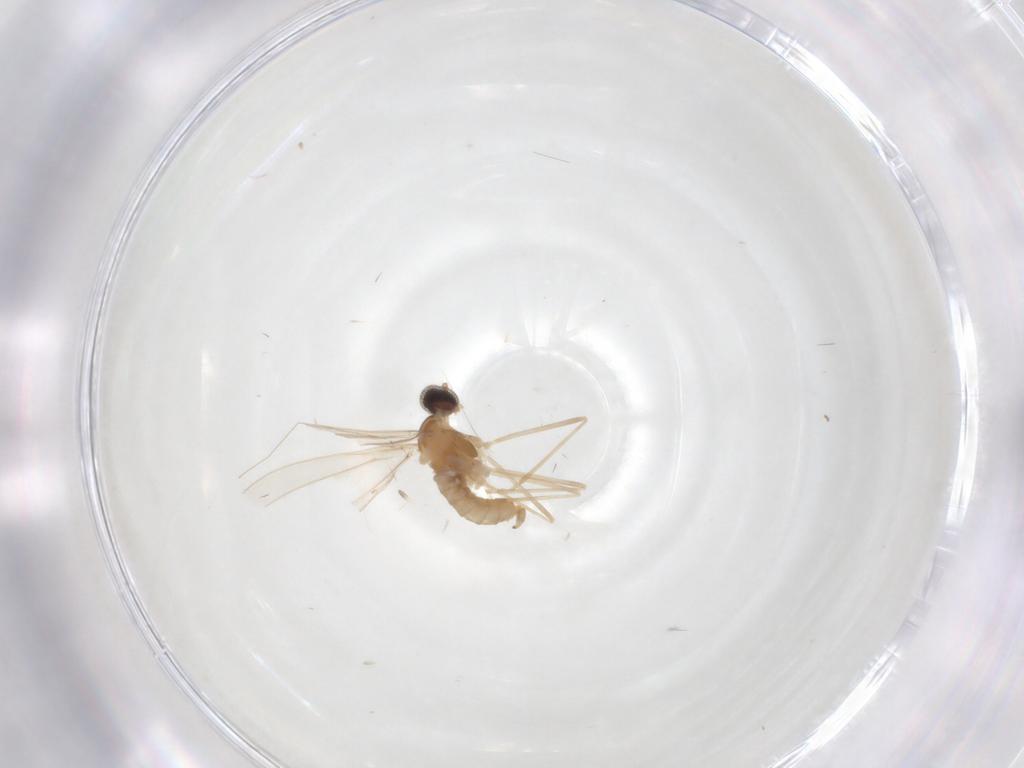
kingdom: Animalia
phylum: Arthropoda
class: Insecta
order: Diptera
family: Cecidomyiidae
